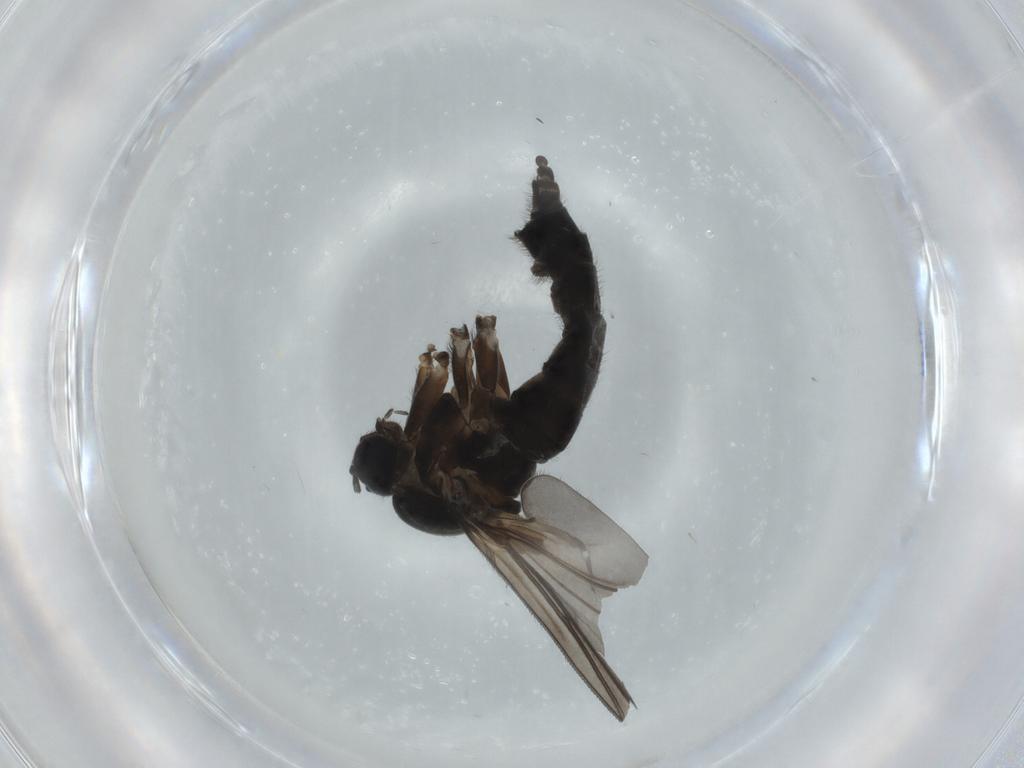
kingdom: Animalia
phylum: Arthropoda
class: Insecta
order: Diptera
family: Sciaridae
